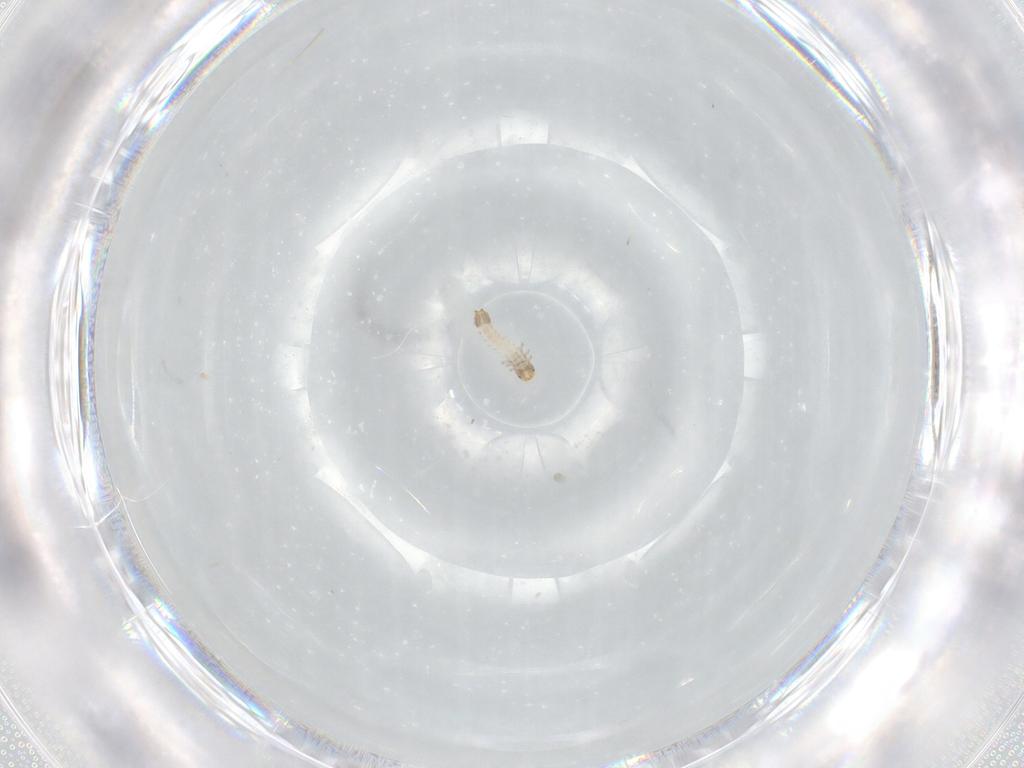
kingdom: Animalia
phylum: Arthropoda
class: Insecta
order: Coleoptera
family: Phalacridae
